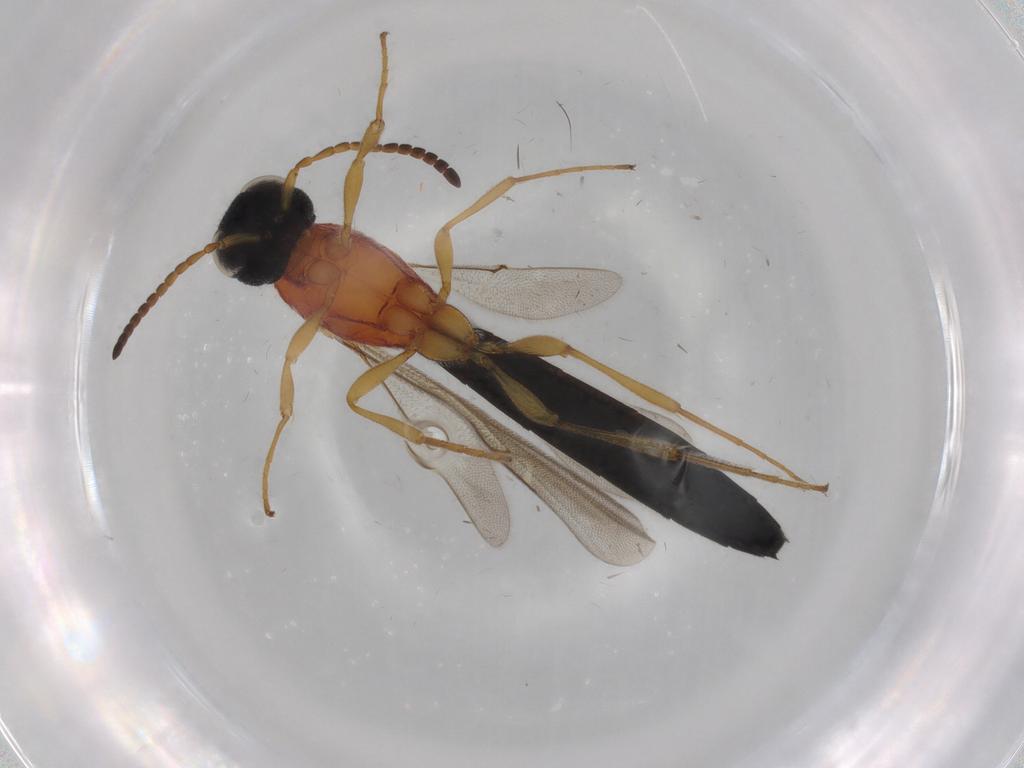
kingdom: Animalia
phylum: Arthropoda
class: Insecta
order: Hymenoptera
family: Scelionidae
